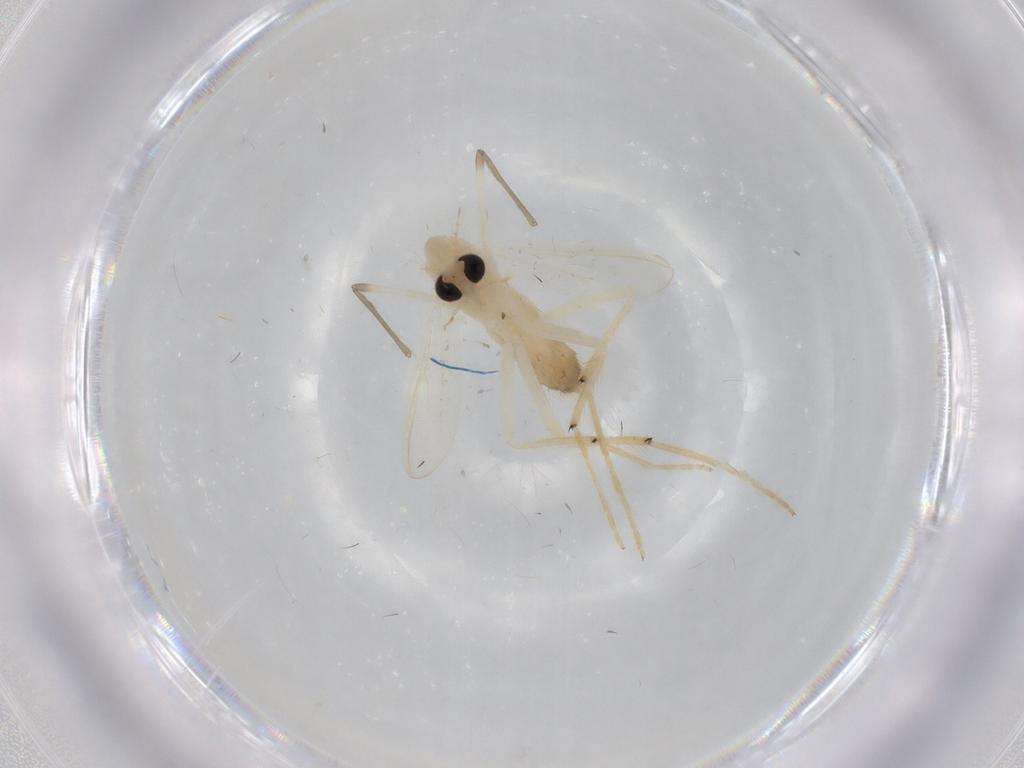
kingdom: Animalia
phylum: Arthropoda
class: Insecta
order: Diptera
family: Chironomidae
